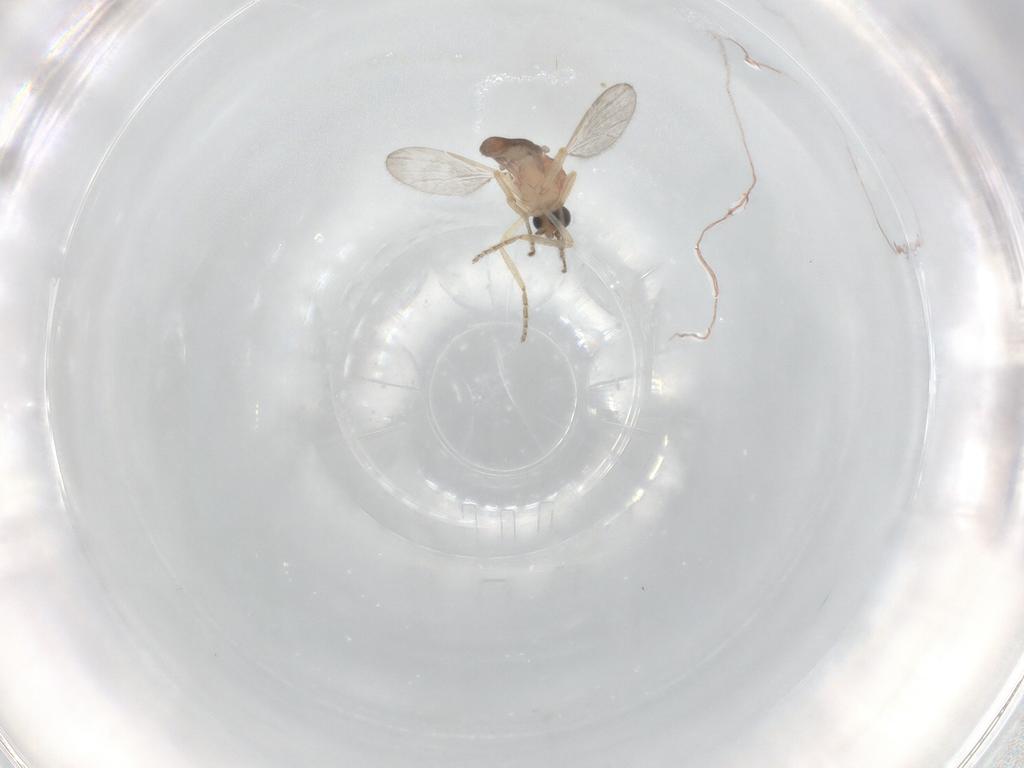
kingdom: Animalia
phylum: Arthropoda
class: Insecta
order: Diptera
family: Ceratopogonidae
